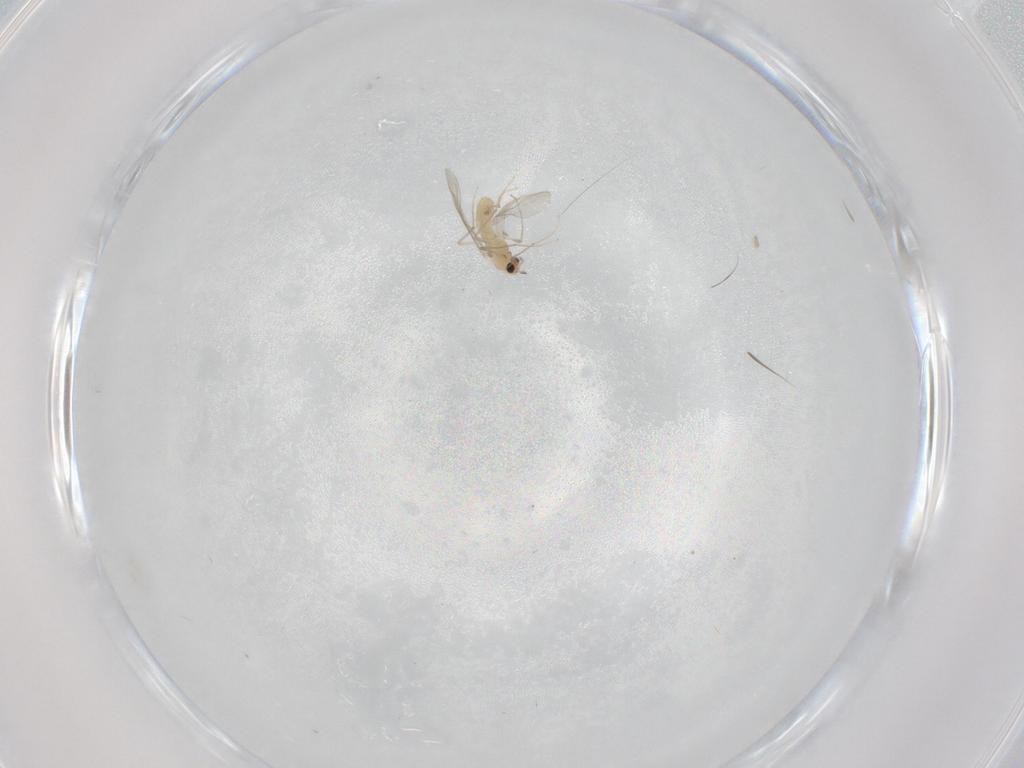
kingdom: Animalia
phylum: Arthropoda
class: Insecta
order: Diptera
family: Chironomidae
